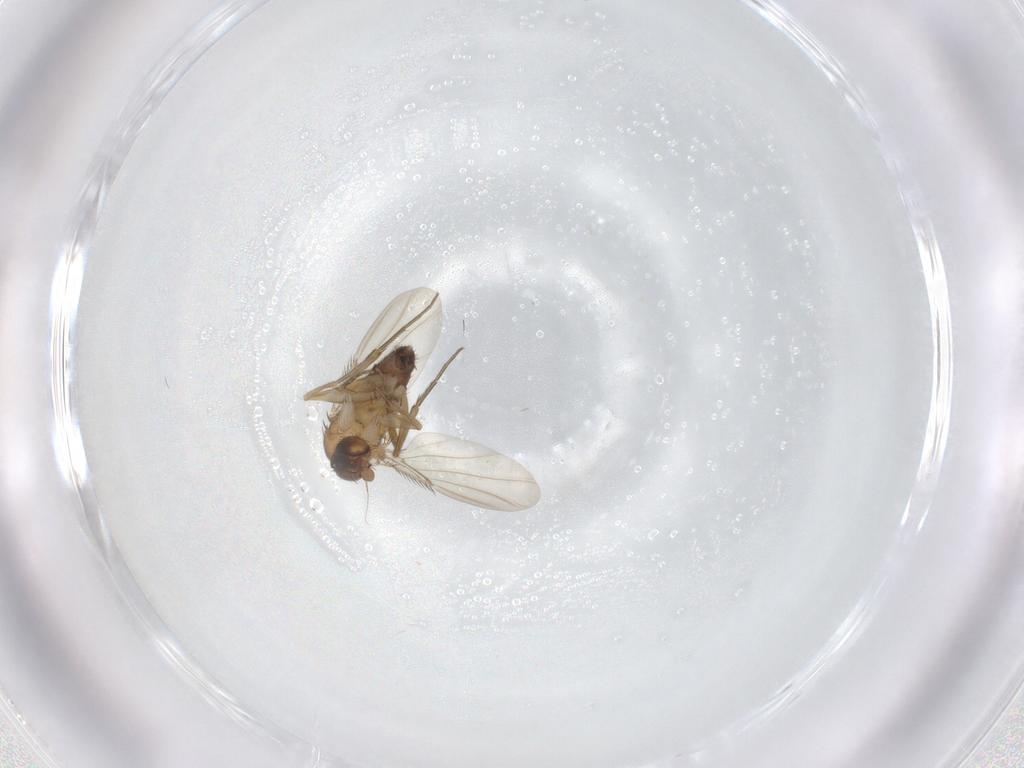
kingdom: Animalia
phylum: Arthropoda
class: Insecta
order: Diptera
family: Phoridae
